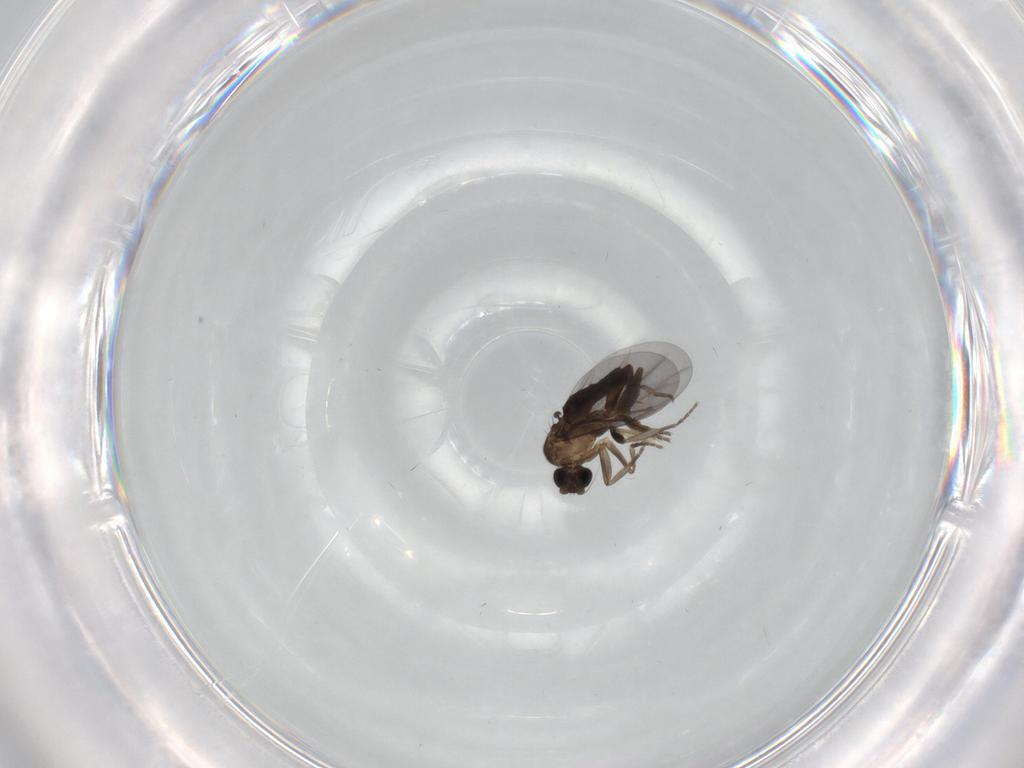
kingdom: Animalia
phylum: Arthropoda
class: Insecta
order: Diptera
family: Phoridae
